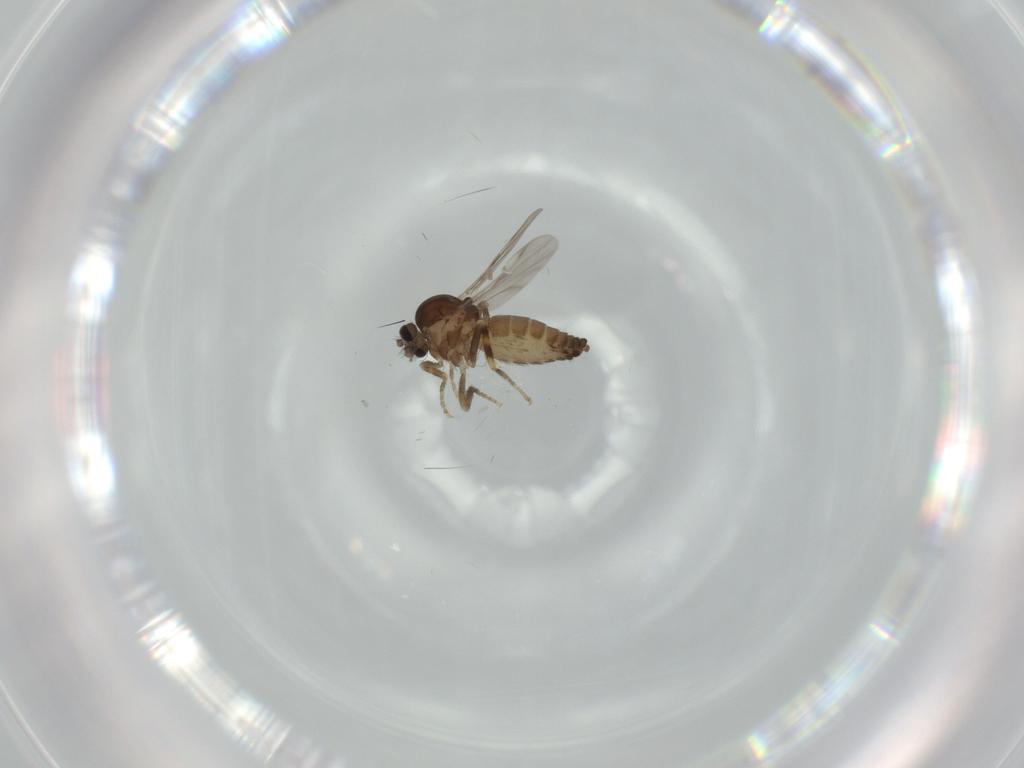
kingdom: Animalia
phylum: Arthropoda
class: Insecta
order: Diptera
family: Ceratopogonidae
